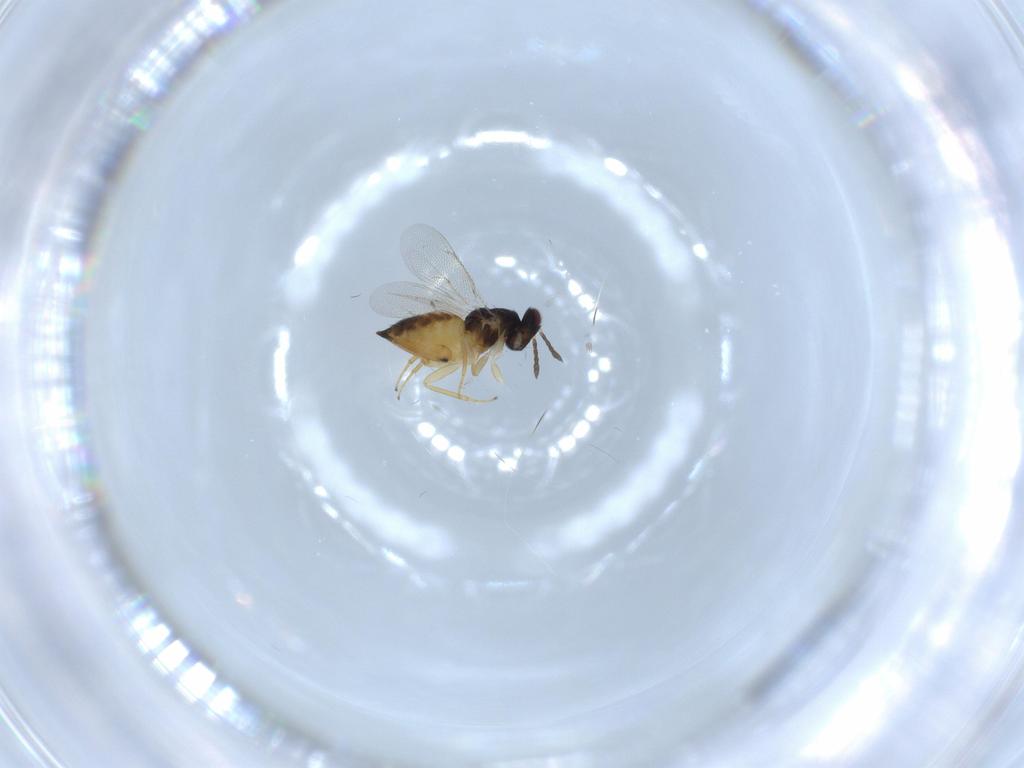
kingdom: Animalia
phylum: Arthropoda
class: Insecta
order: Hymenoptera
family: Eulophidae
